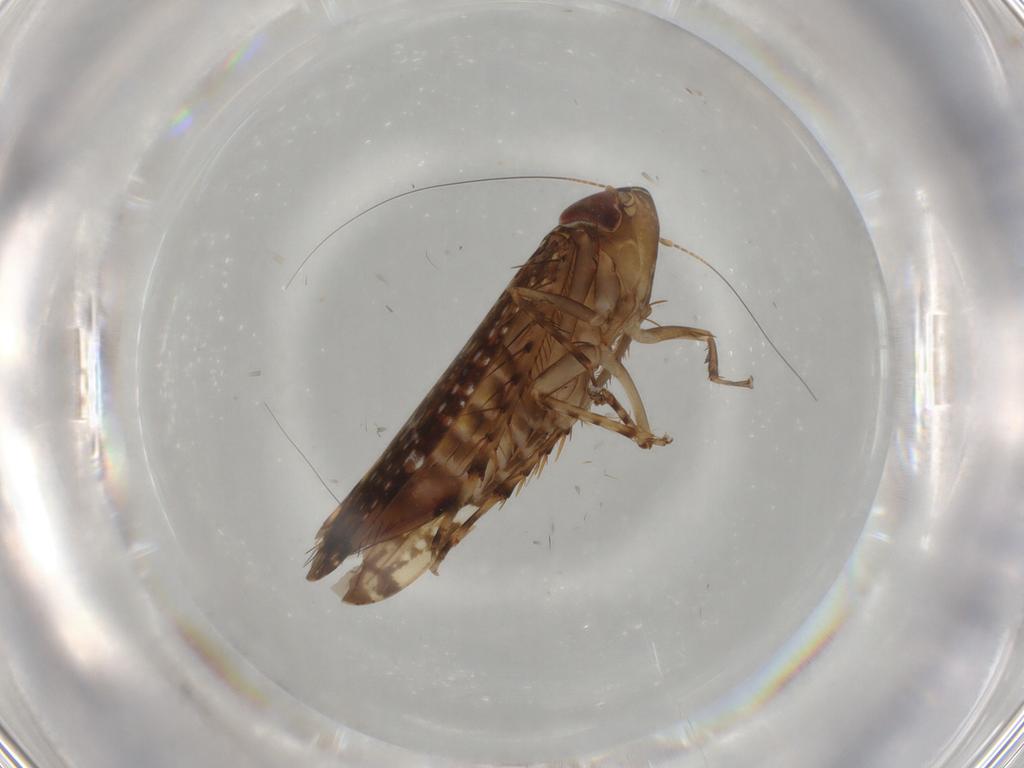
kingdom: Animalia
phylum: Arthropoda
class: Insecta
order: Hemiptera
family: Cicadellidae
